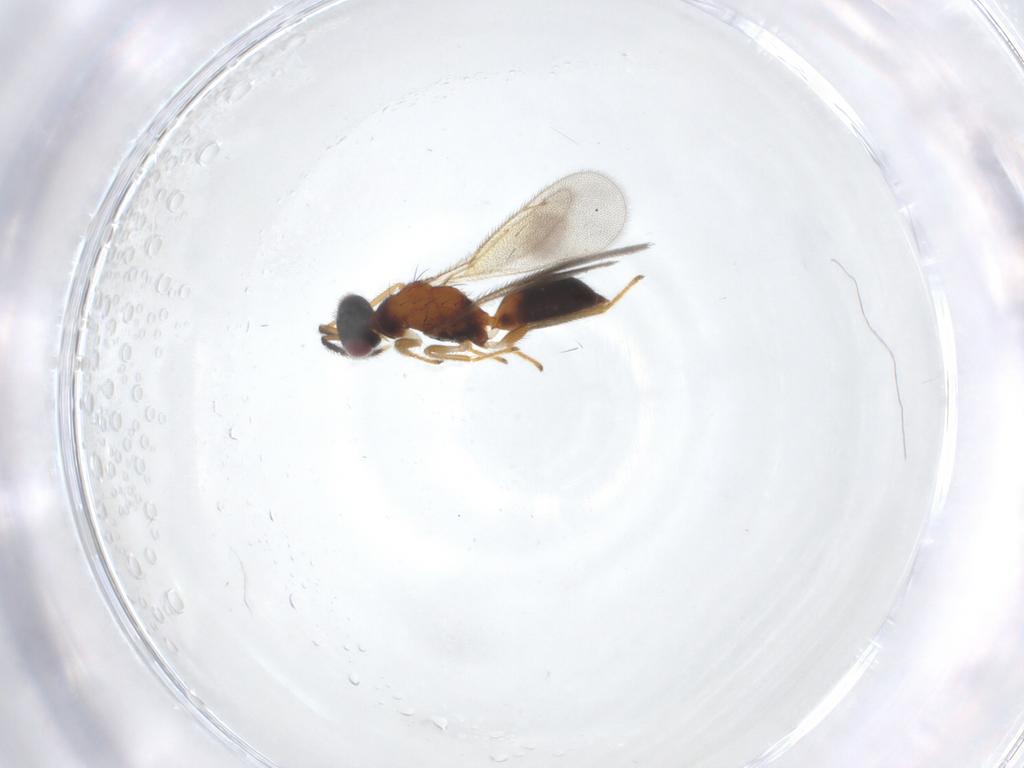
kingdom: Animalia
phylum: Arthropoda
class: Insecta
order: Hymenoptera
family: Eulophidae
